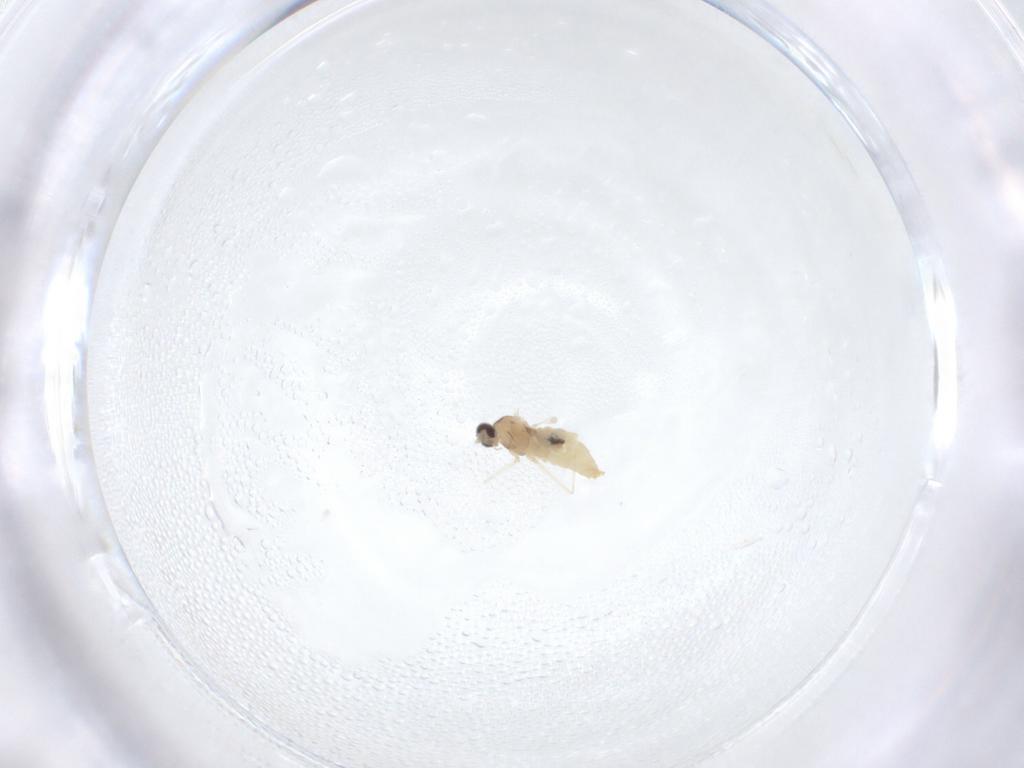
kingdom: Animalia
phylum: Arthropoda
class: Insecta
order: Diptera
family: Cecidomyiidae
